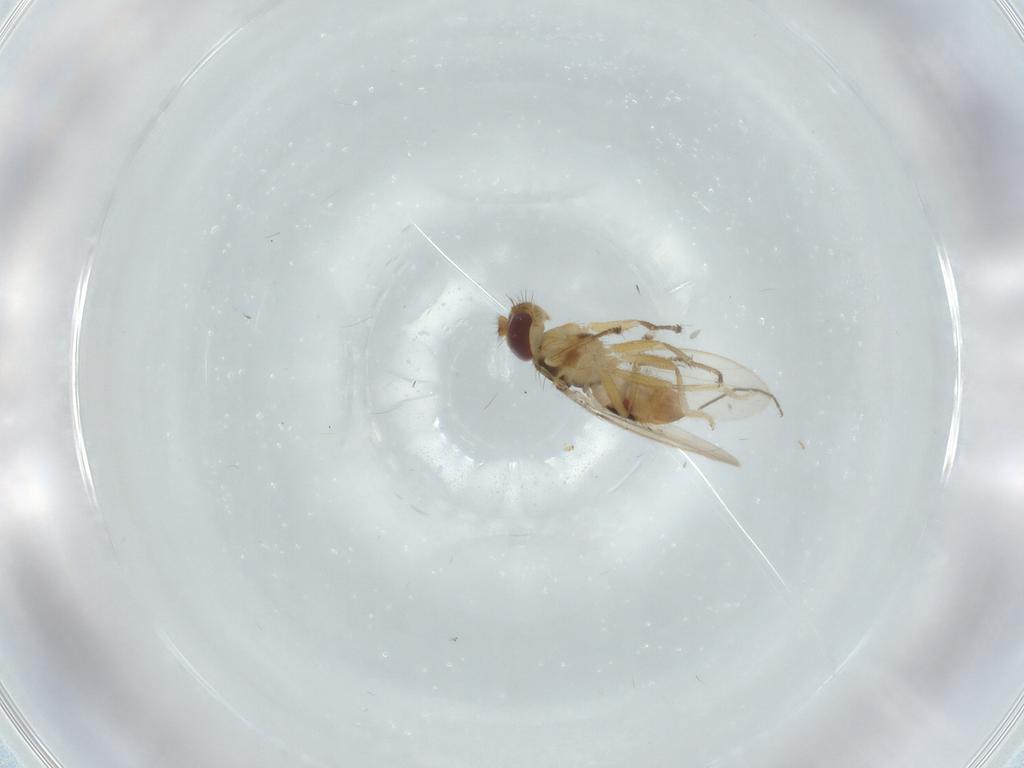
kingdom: Animalia
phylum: Arthropoda
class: Insecta
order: Diptera
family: Periscelididae
